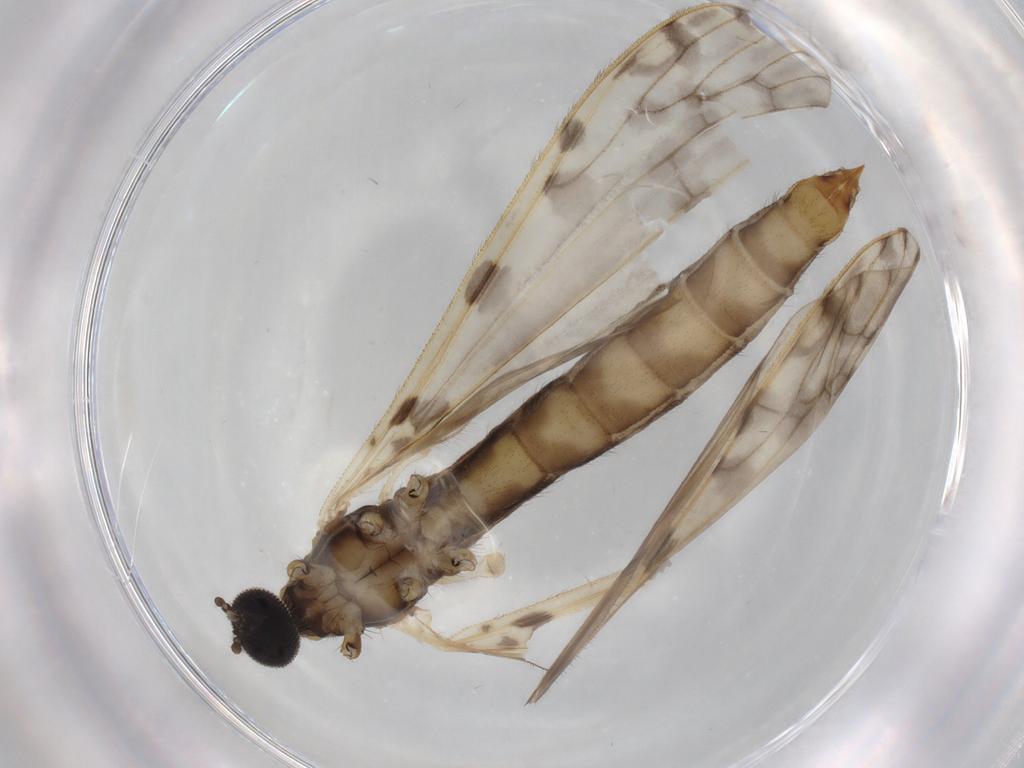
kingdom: Animalia
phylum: Arthropoda
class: Insecta
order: Diptera
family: Limoniidae
